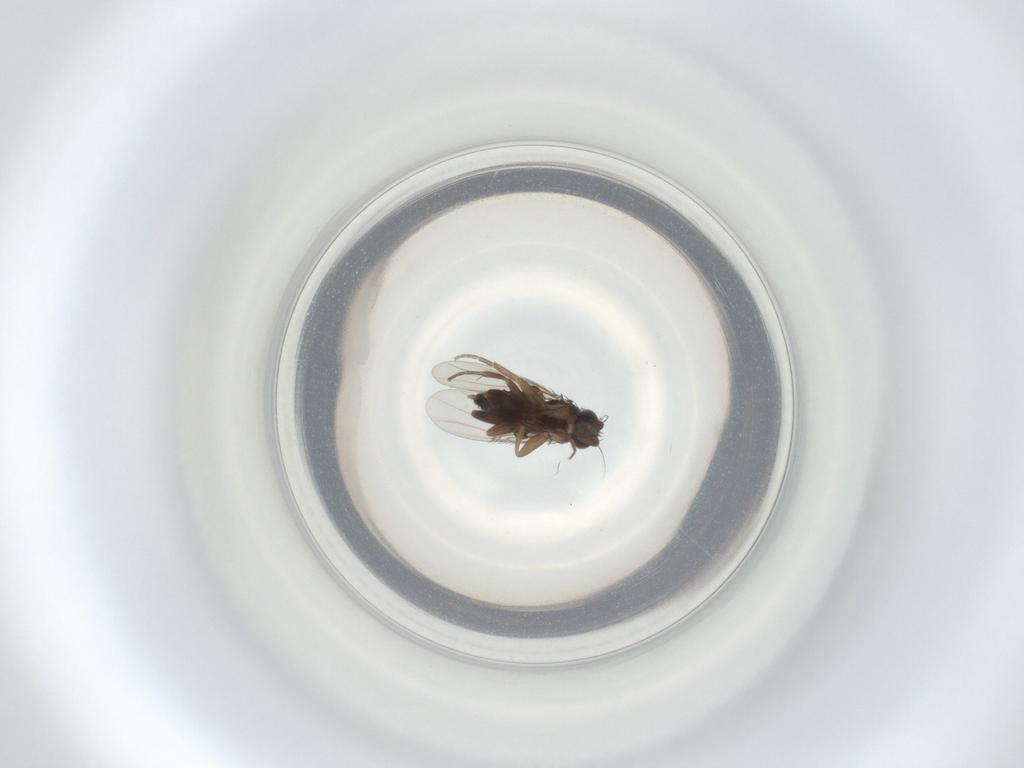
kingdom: Animalia
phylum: Arthropoda
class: Insecta
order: Diptera
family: Phoridae
